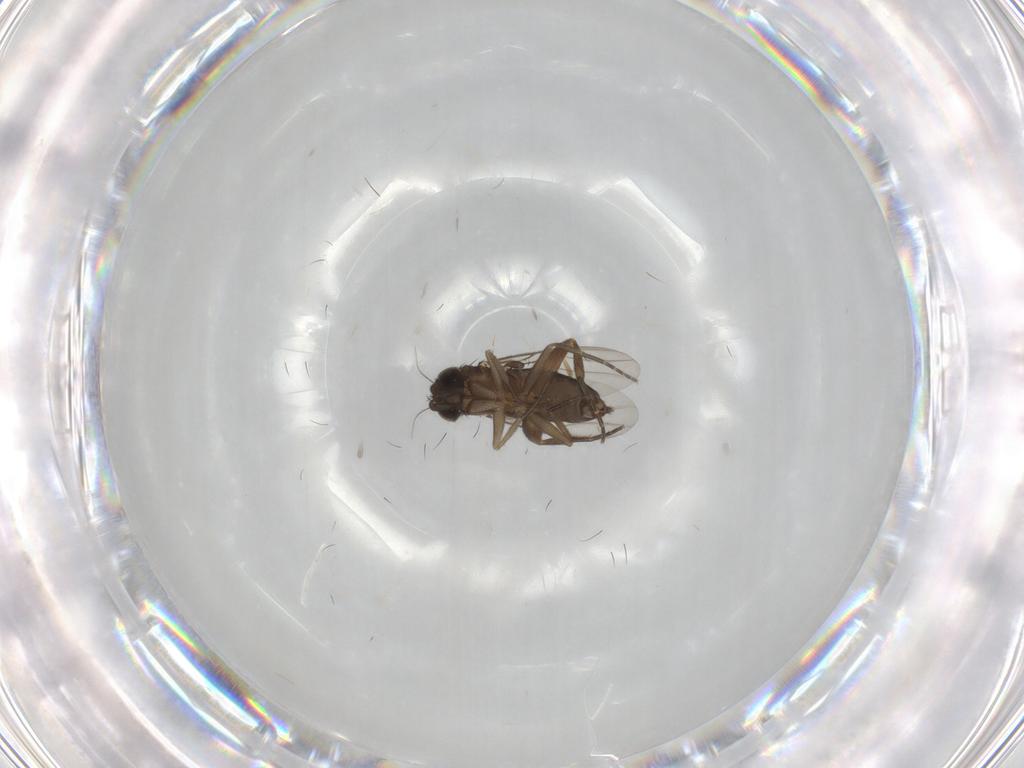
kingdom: Animalia
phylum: Arthropoda
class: Insecta
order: Diptera
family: Phoridae
